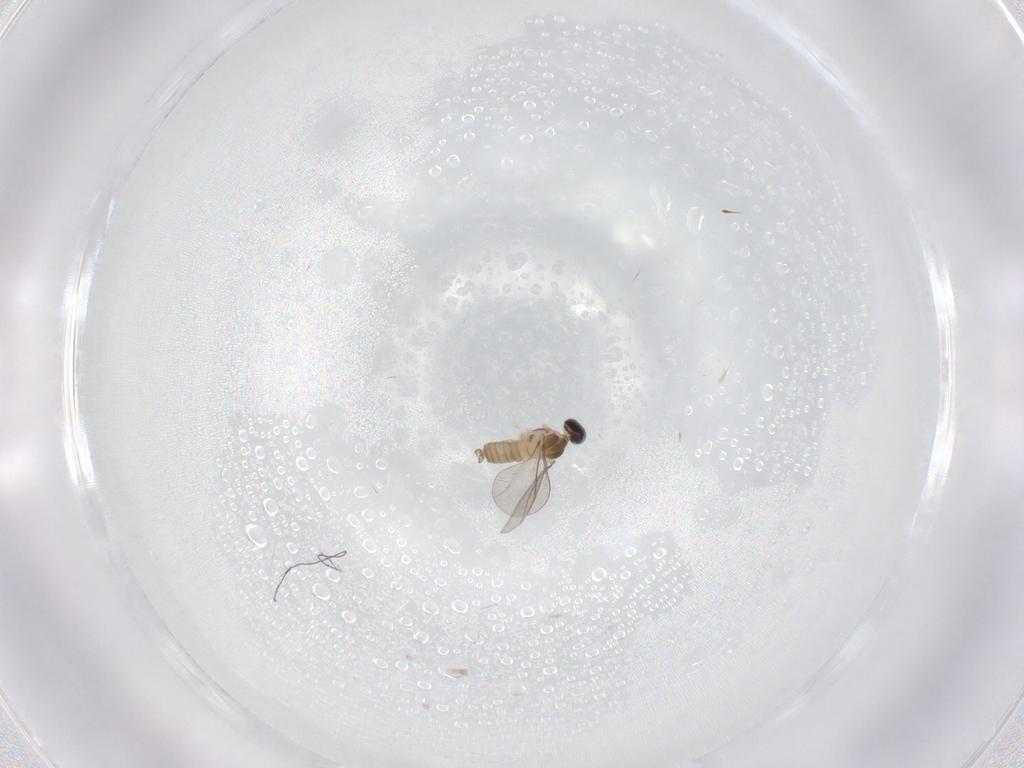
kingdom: Animalia
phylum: Arthropoda
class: Insecta
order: Diptera
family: Cecidomyiidae
